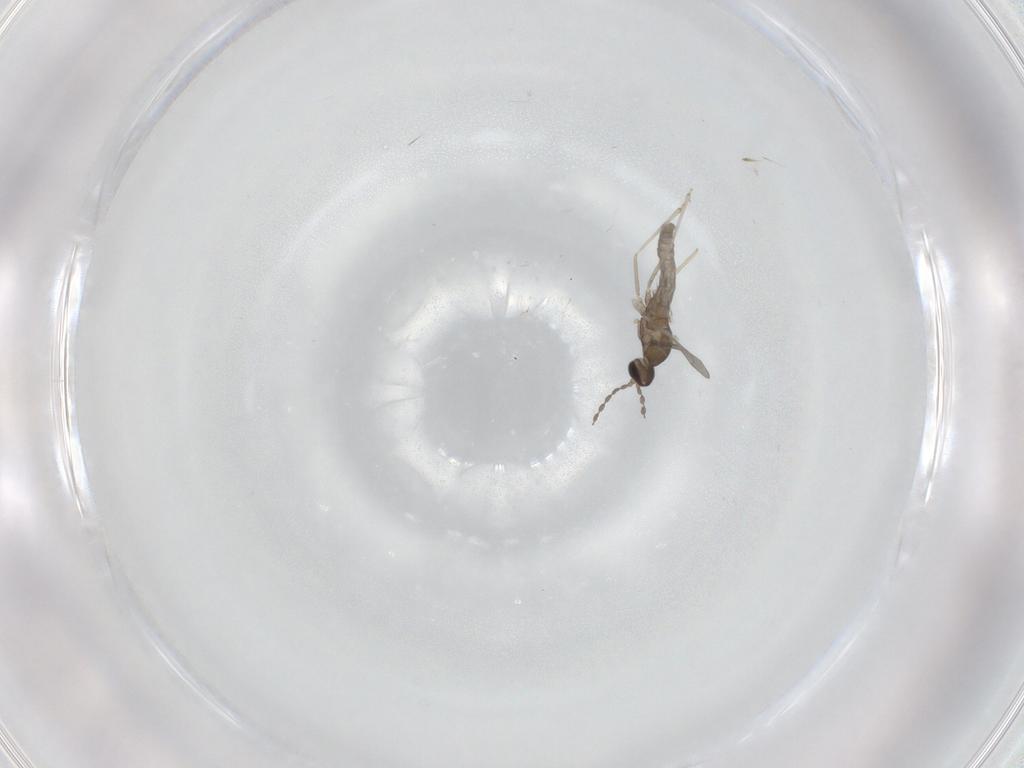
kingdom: Animalia
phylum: Arthropoda
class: Insecta
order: Diptera
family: Cecidomyiidae
